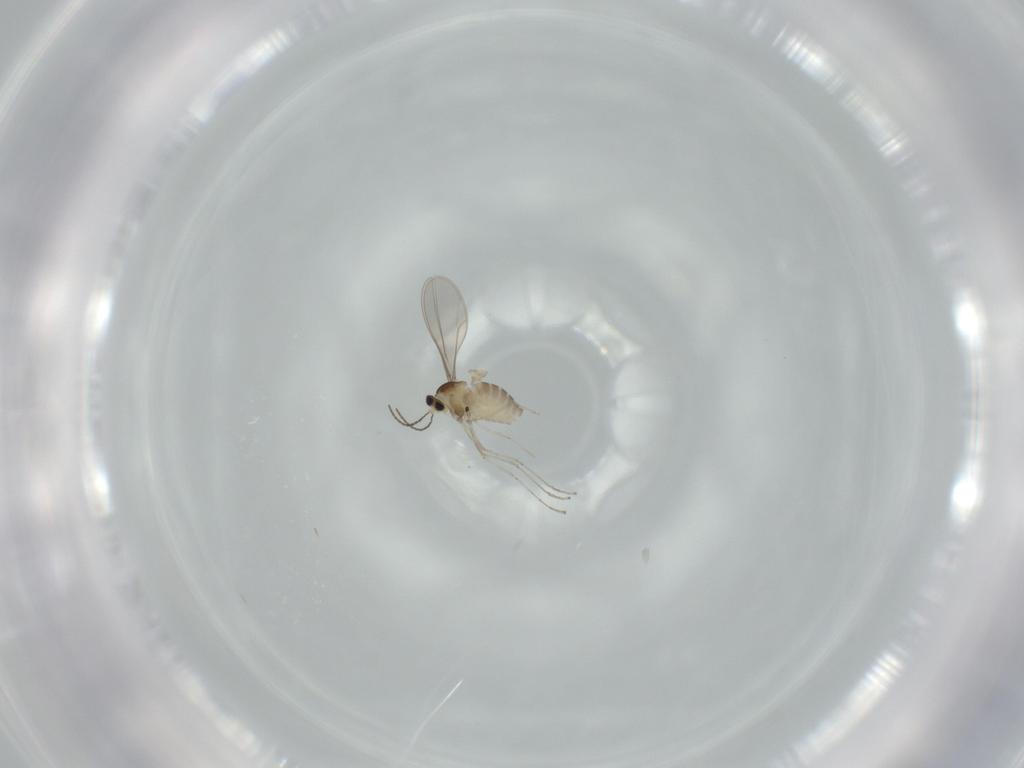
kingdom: Animalia
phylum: Arthropoda
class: Insecta
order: Diptera
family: Cecidomyiidae
